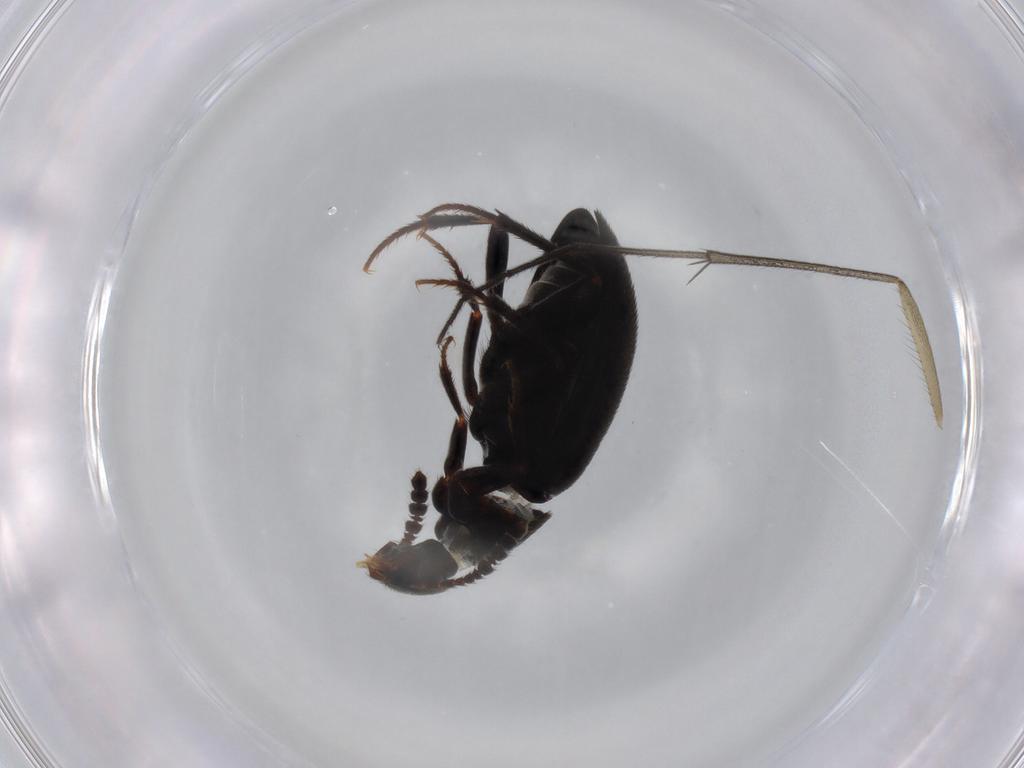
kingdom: Animalia
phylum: Arthropoda
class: Insecta
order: Coleoptera
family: Leiodidae
